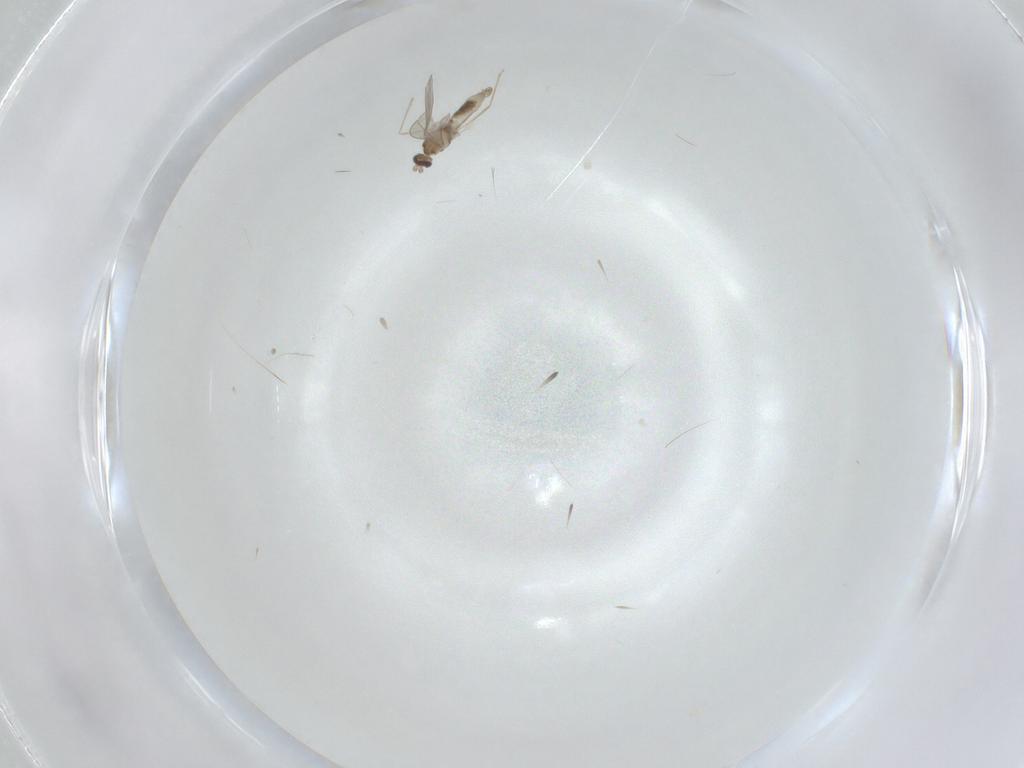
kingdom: Animalia
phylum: Arthropoda
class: Insecta
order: Diptera
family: Cecidomyiidae
